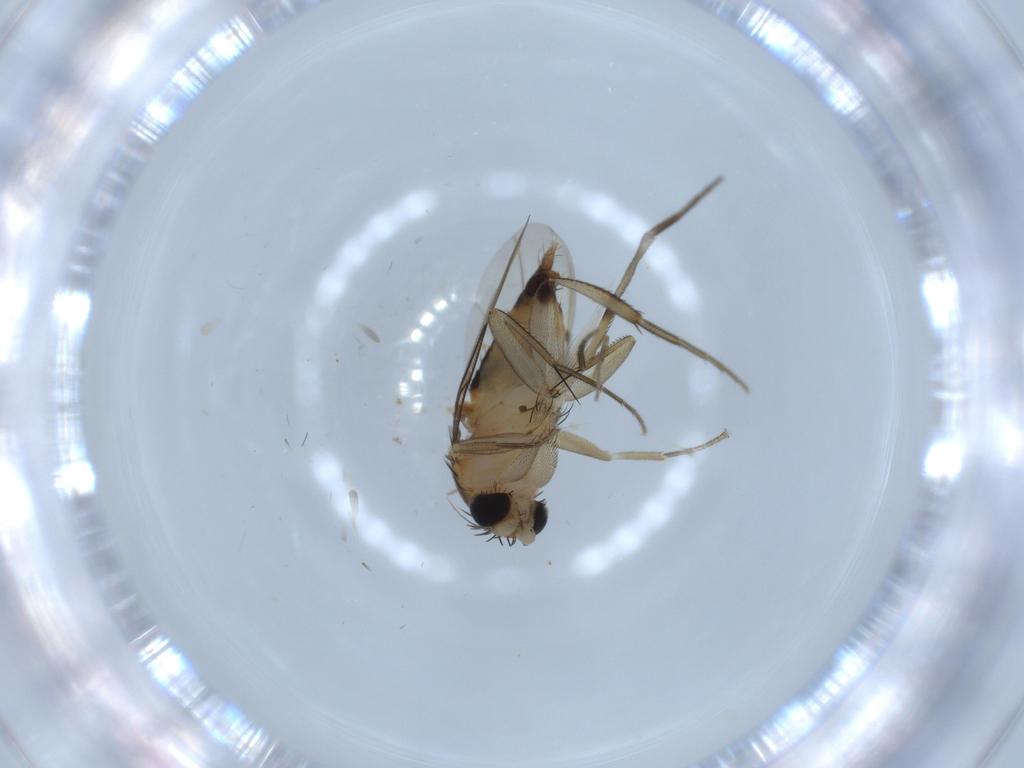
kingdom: Animalia
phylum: Arthropoda
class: Insecta
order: Diptera
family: Phoridae
